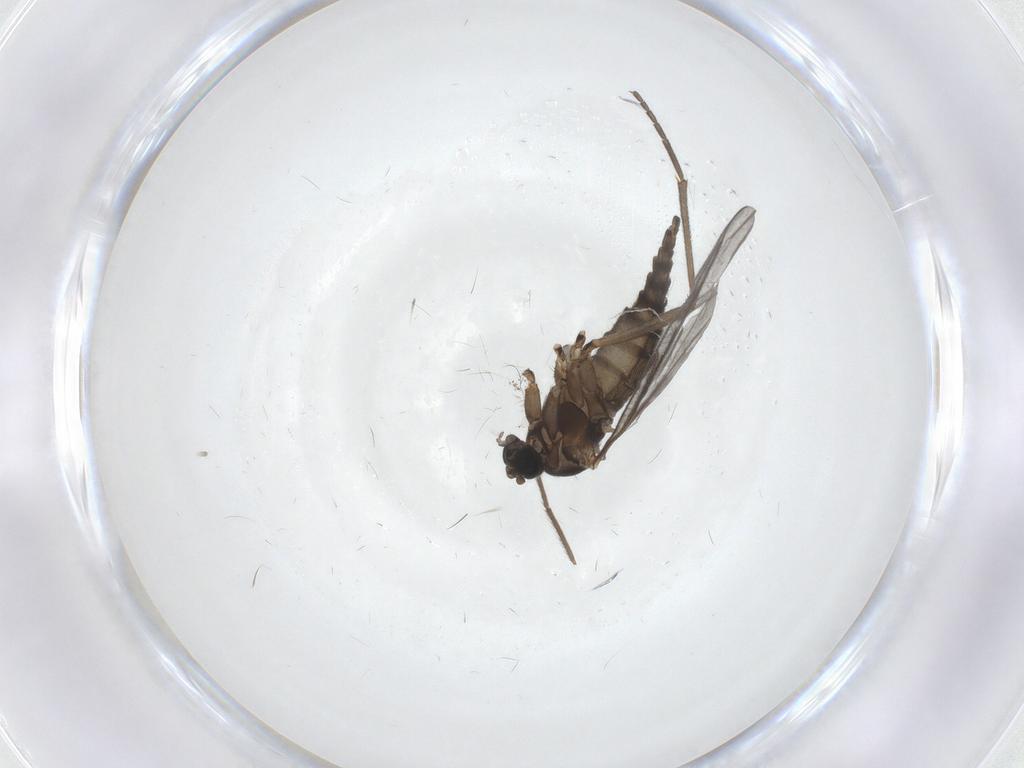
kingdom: Animalia
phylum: Arthropoda
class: Insecta
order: Diptera
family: Sciaridae
